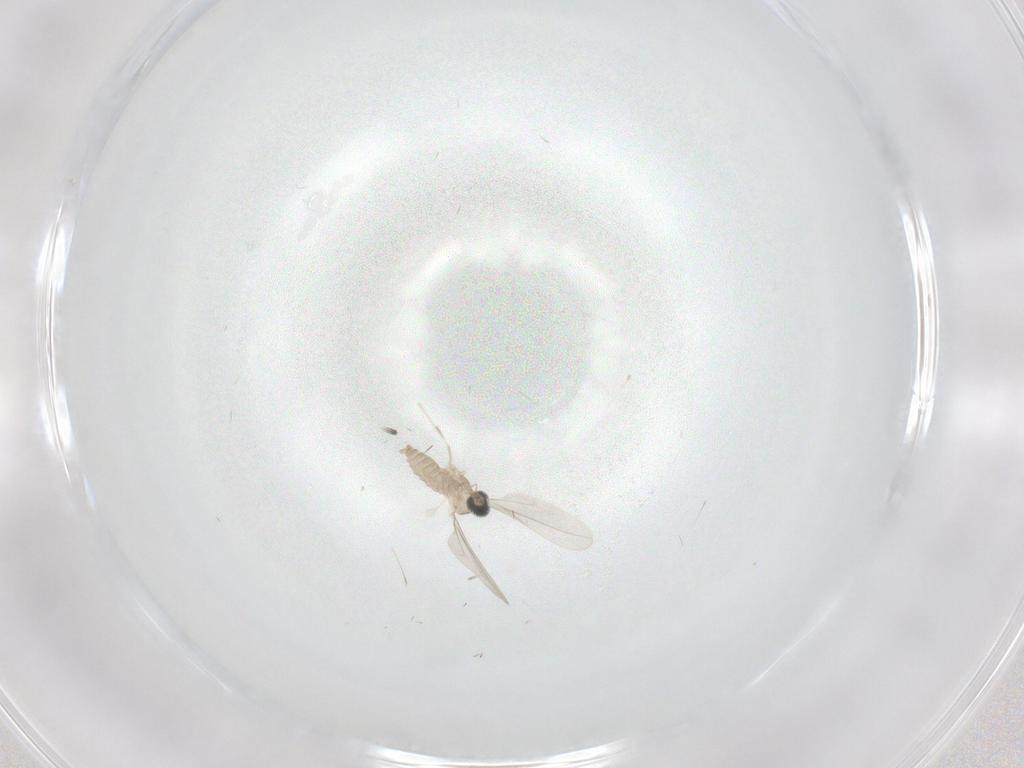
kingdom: Animalia
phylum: Arthropoda
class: Insecta
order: Diptera
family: Psychodidae
